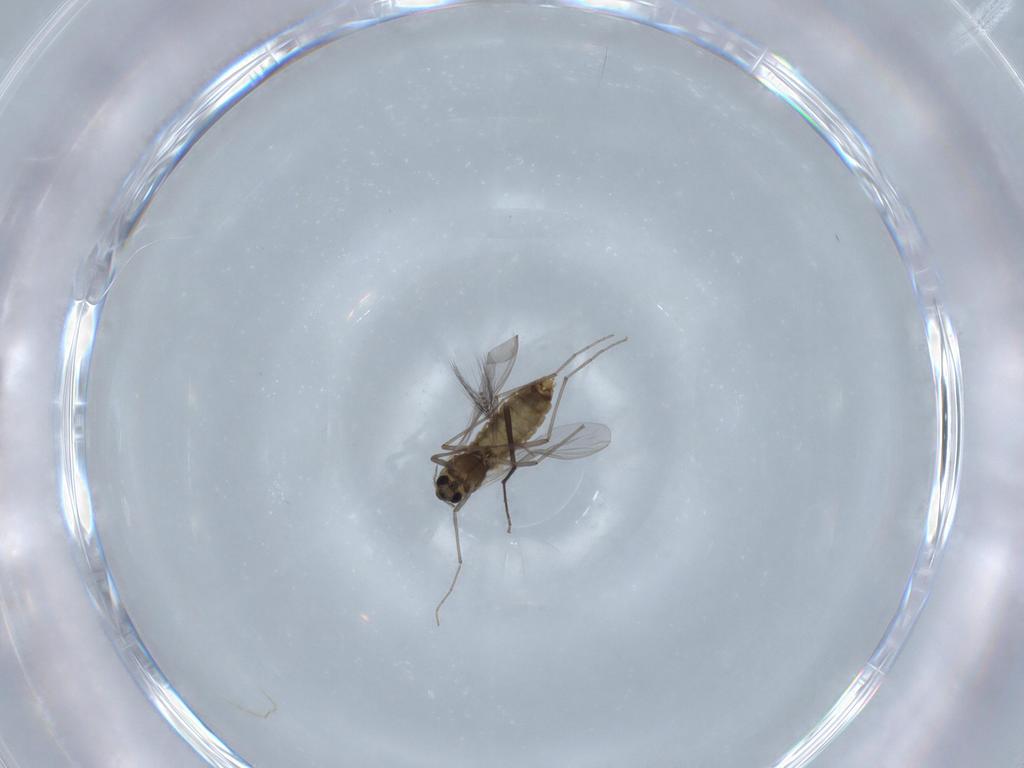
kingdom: Animalia
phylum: Arthropoda
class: Insecta
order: Diptera
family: Chironomidae
